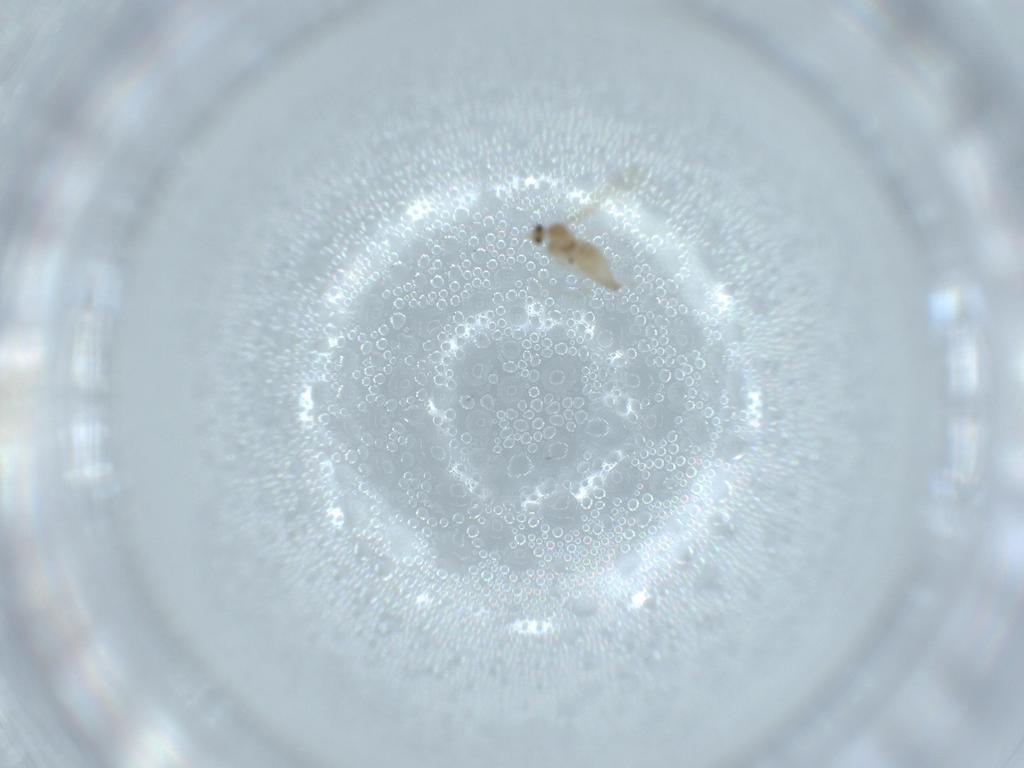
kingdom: Animalia
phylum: Arthropoda
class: Insecta
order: Diptera
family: Cecidomyiidae
